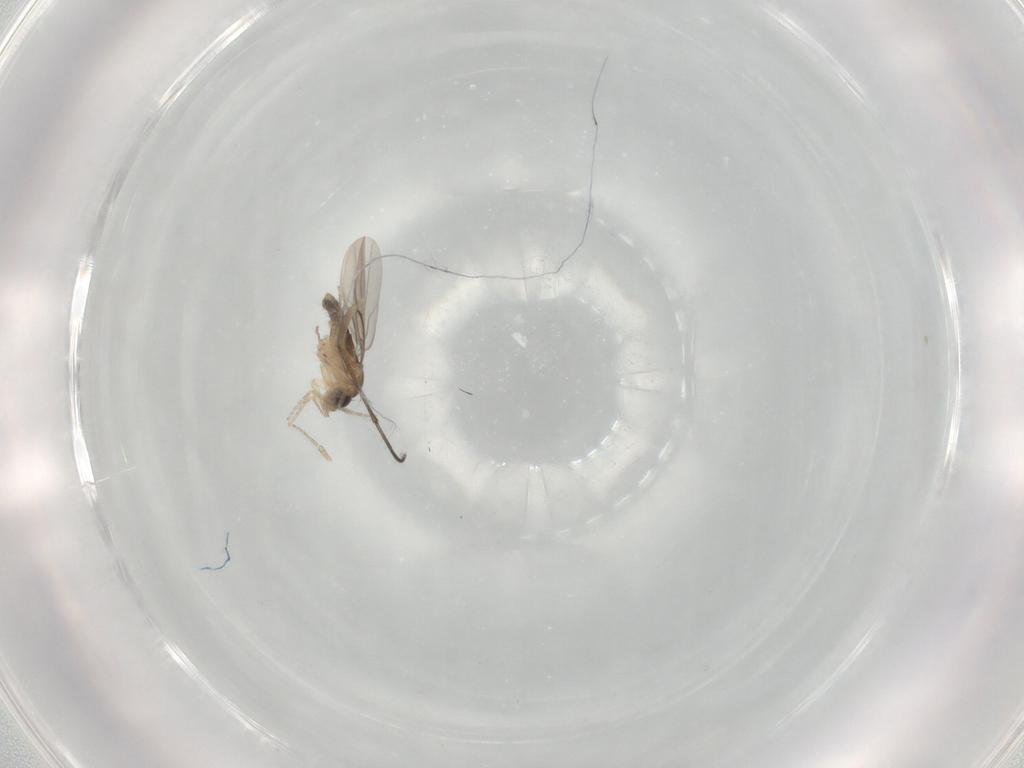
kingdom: Animalia
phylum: Arthropoda
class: Insecta
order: Diptera
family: Phoridae
